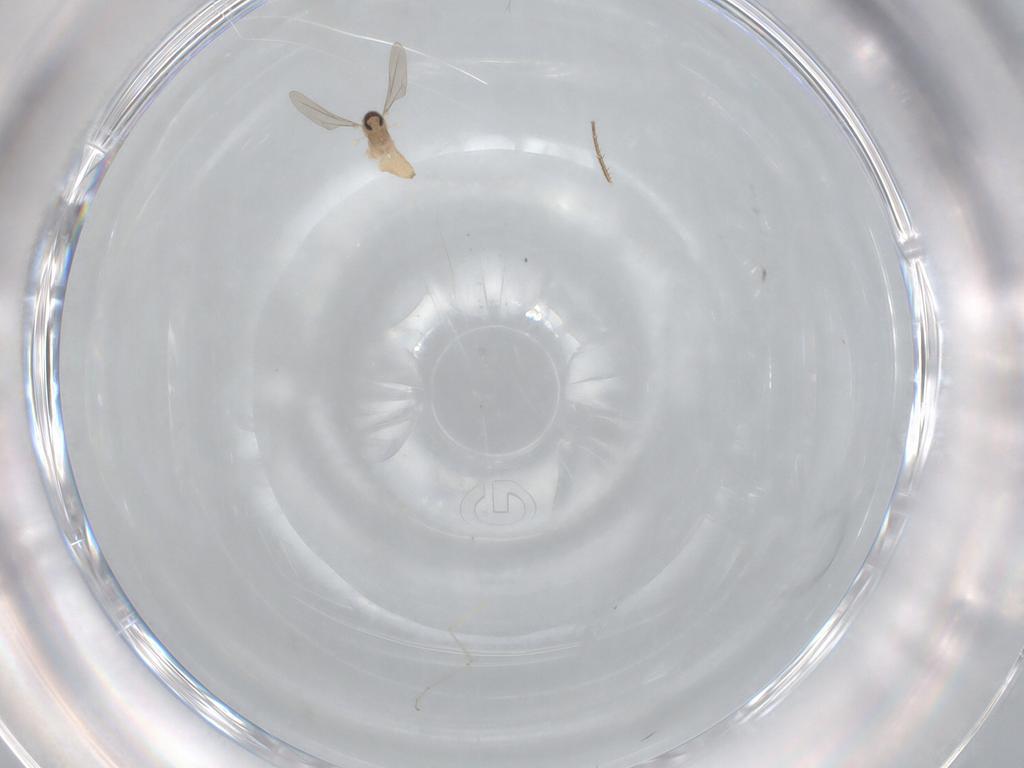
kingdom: Animalia
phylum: Arthropoda
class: Insecta
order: Diptera
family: Cecidomyiidae
